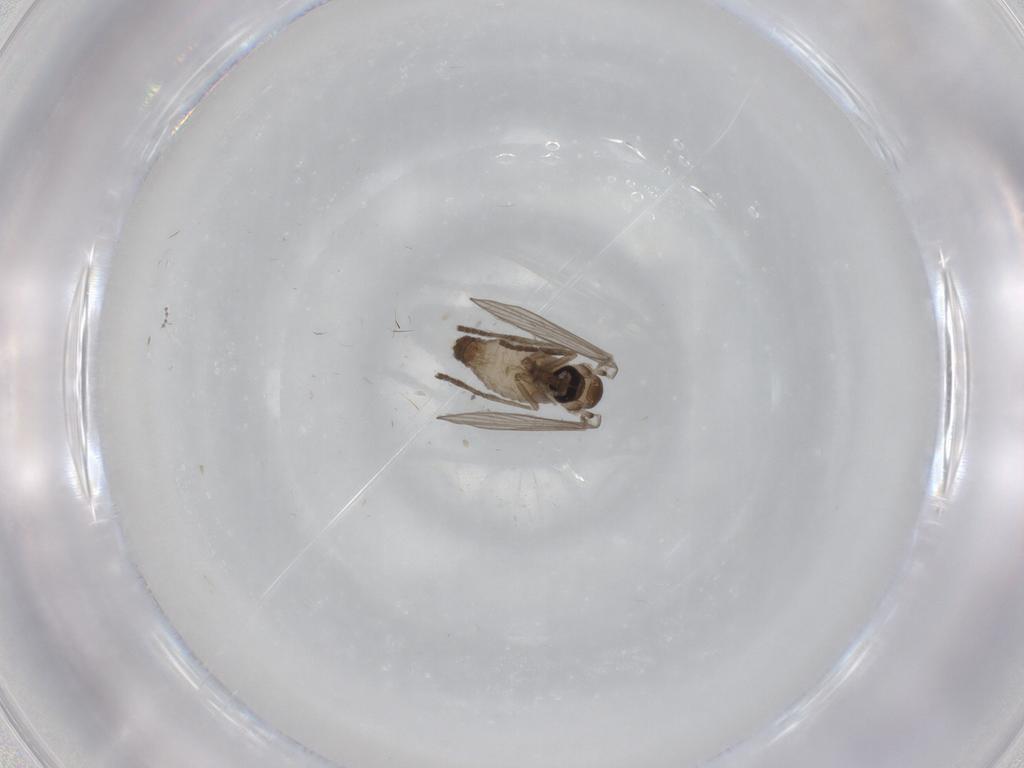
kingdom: Animalia
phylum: Arthropoda
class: Insecta
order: Diptera
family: Psychodidae
